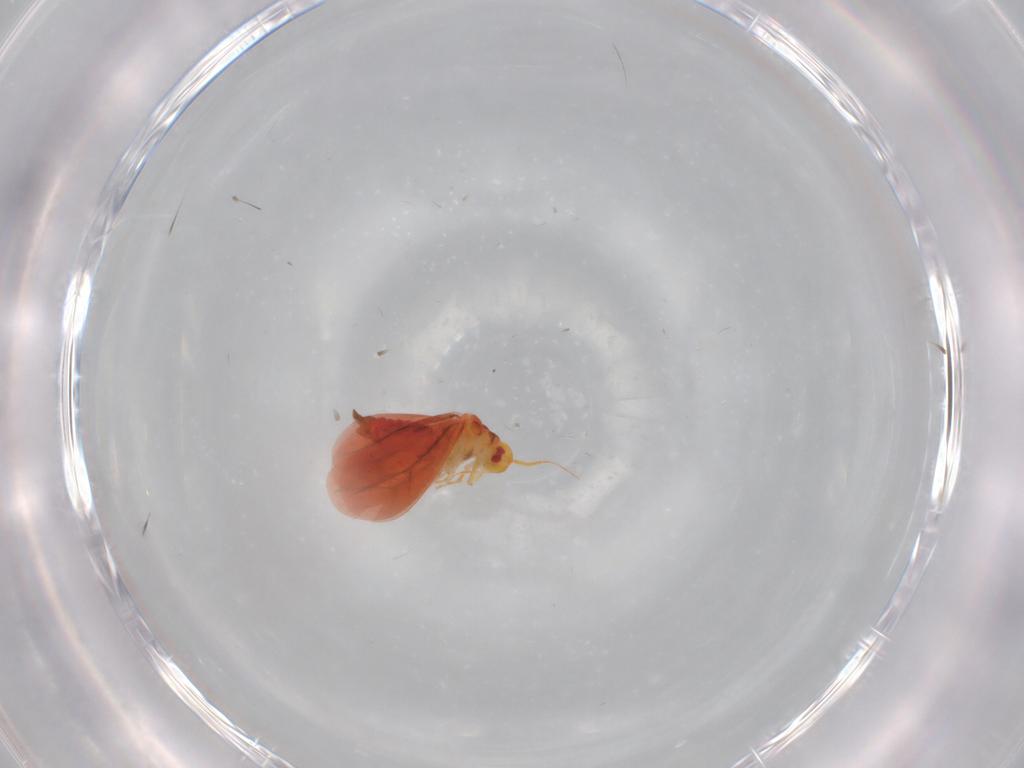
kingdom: Animalia
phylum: Arthropoda
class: Insecta
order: Hemiptera
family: Aleyrodidae
